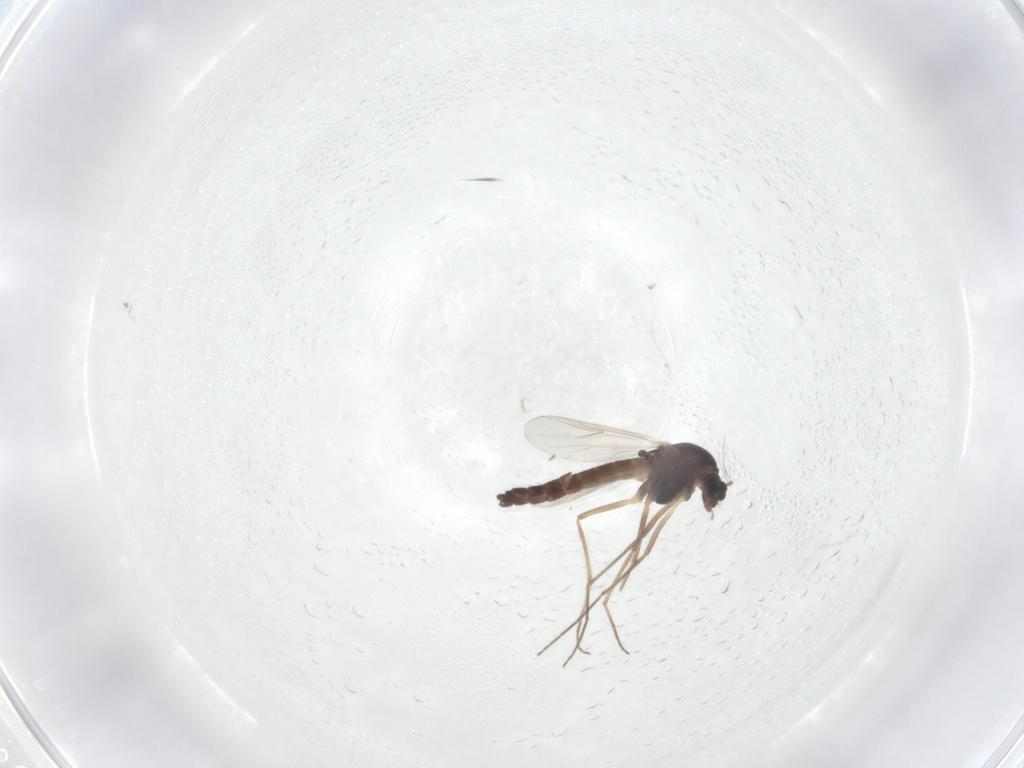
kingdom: Animalia
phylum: Arthropoda
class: Insecta
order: Diptera
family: Chironomidae
